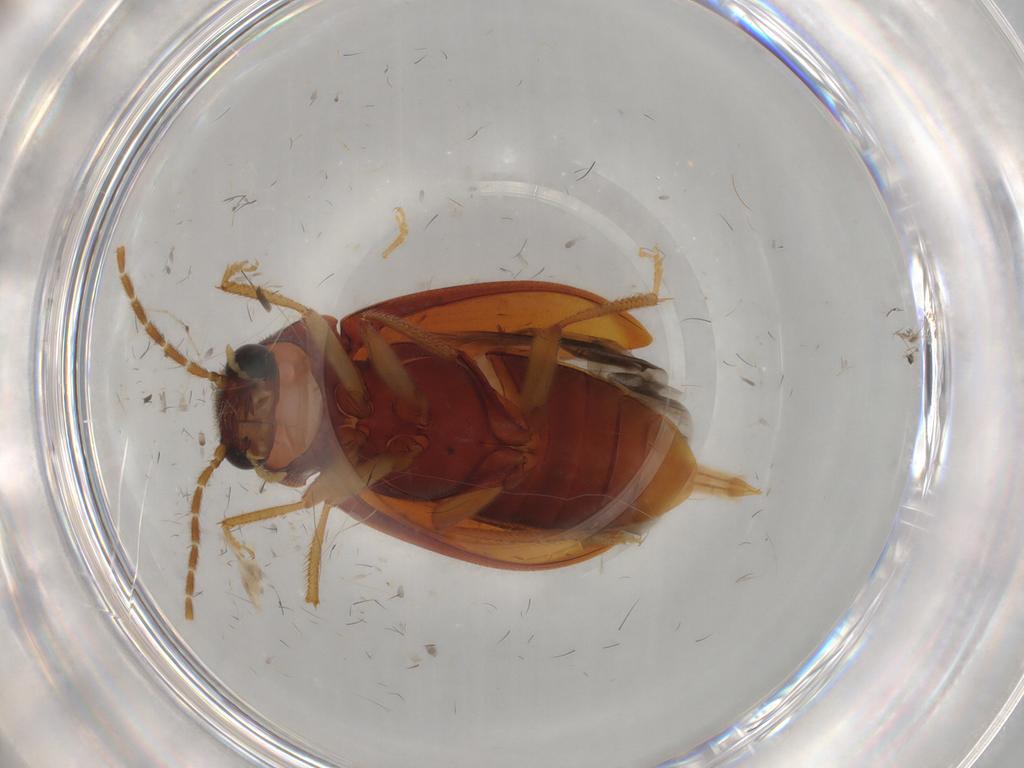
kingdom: Animalia
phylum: Arthropoda
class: Insecta
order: Coleoptera
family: Ptilodactylidae
